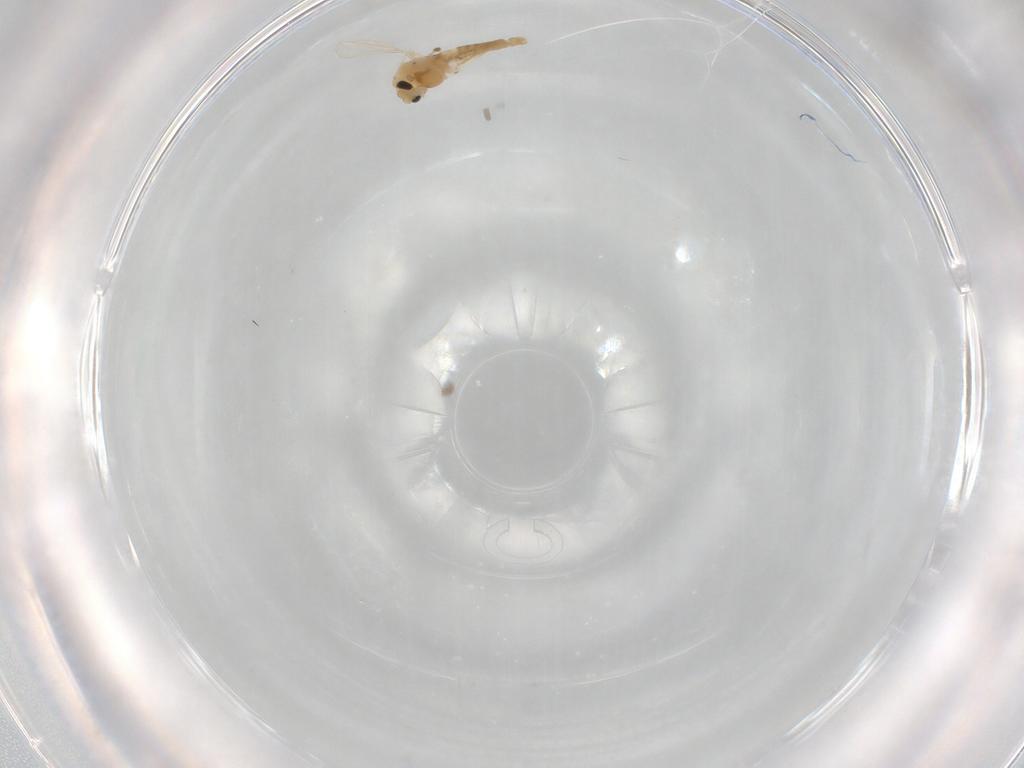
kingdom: Animalia
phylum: Arthropoda
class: Insecta
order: Diptera
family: Chironomidae
